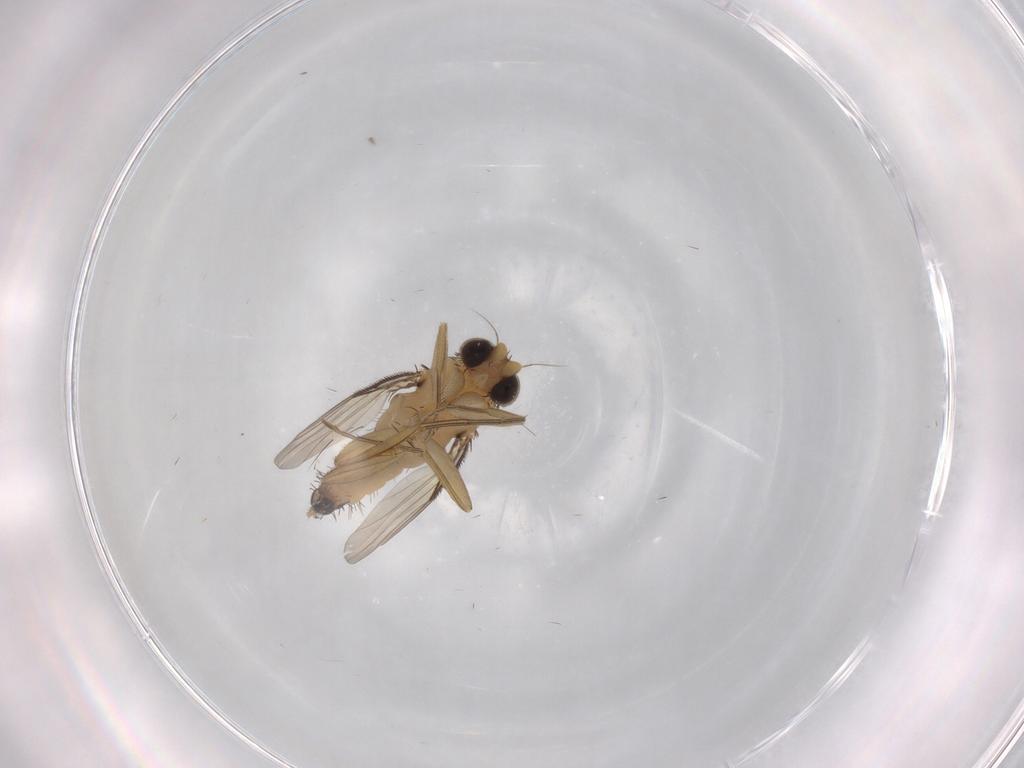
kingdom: Animalia
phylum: Arthropoda
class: Insecta
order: Diptera
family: Phoridae
